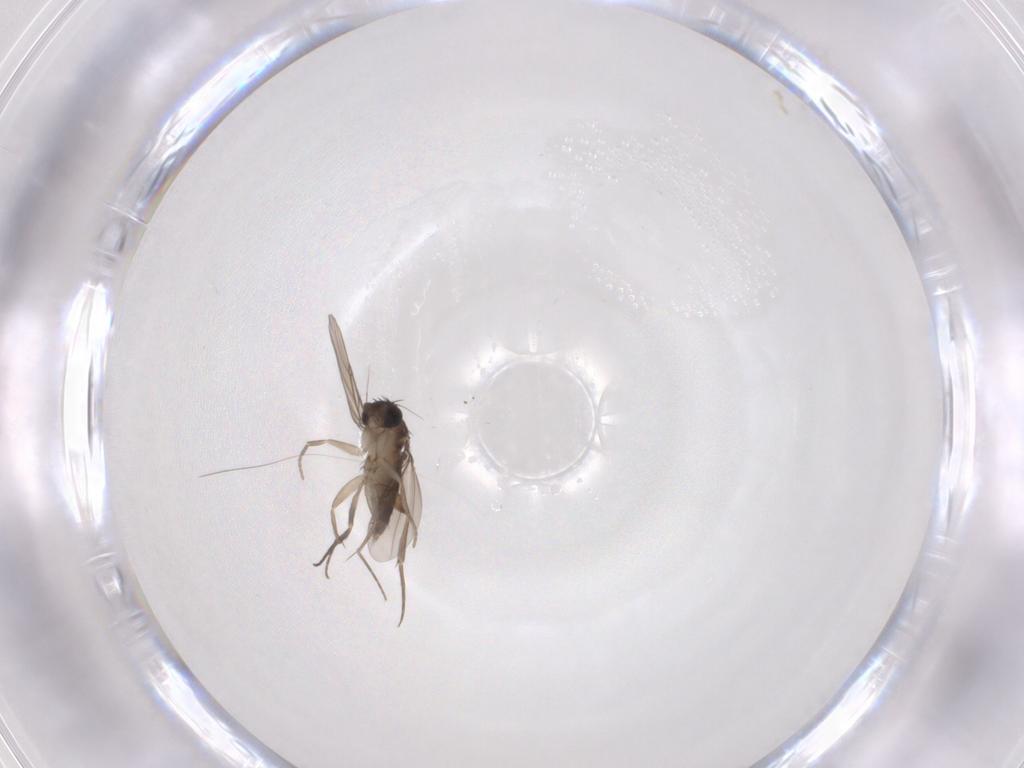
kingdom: Animalia
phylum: Arthropoda
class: Insecta
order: Diptera
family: Phoridae
